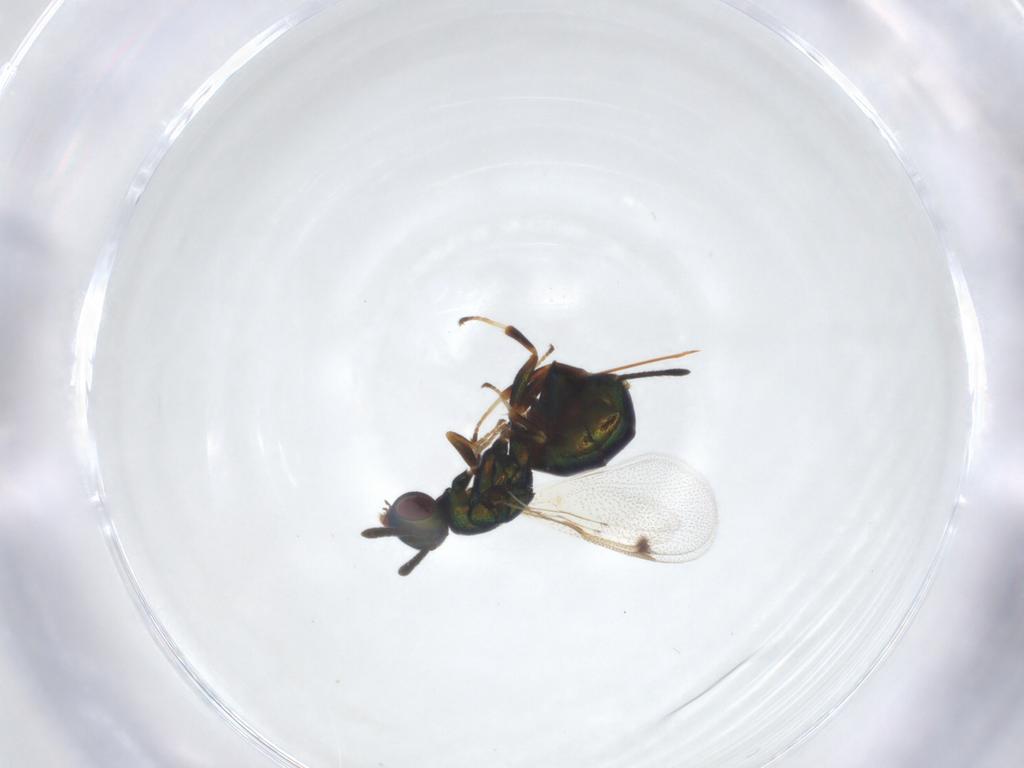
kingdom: Animalia
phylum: Arthropoda
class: Insecta
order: Hymenoptera
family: Torymidae
